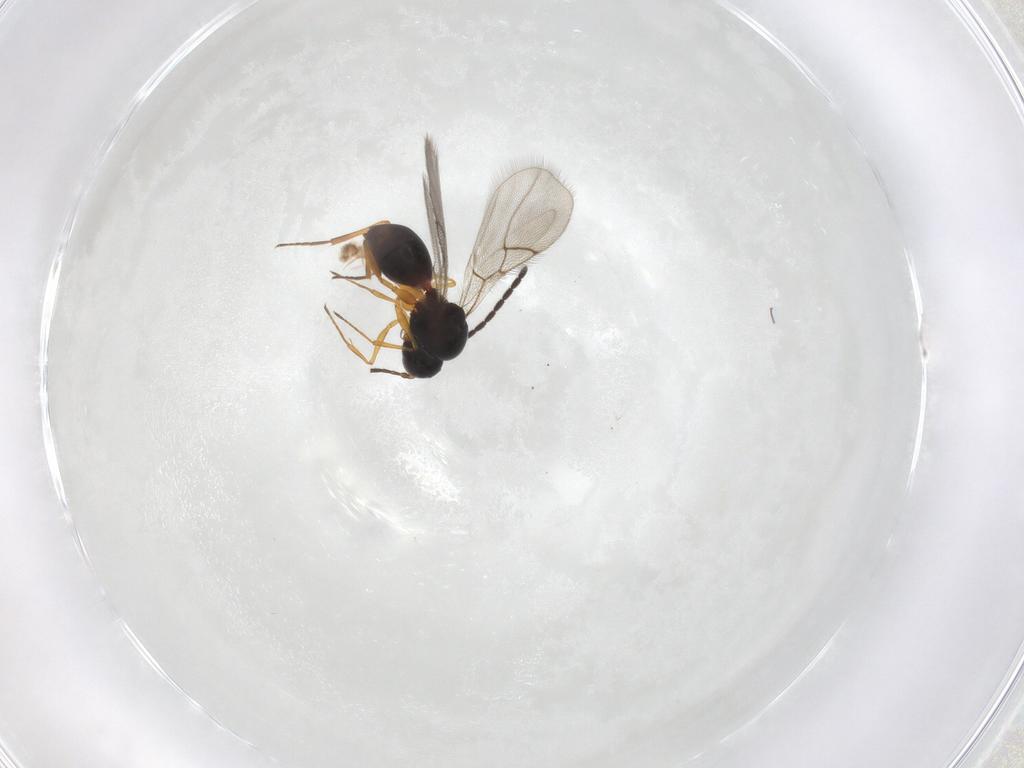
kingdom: Animalia
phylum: Arthropoda
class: Insecta
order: Hymenoptera
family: Figitidae
